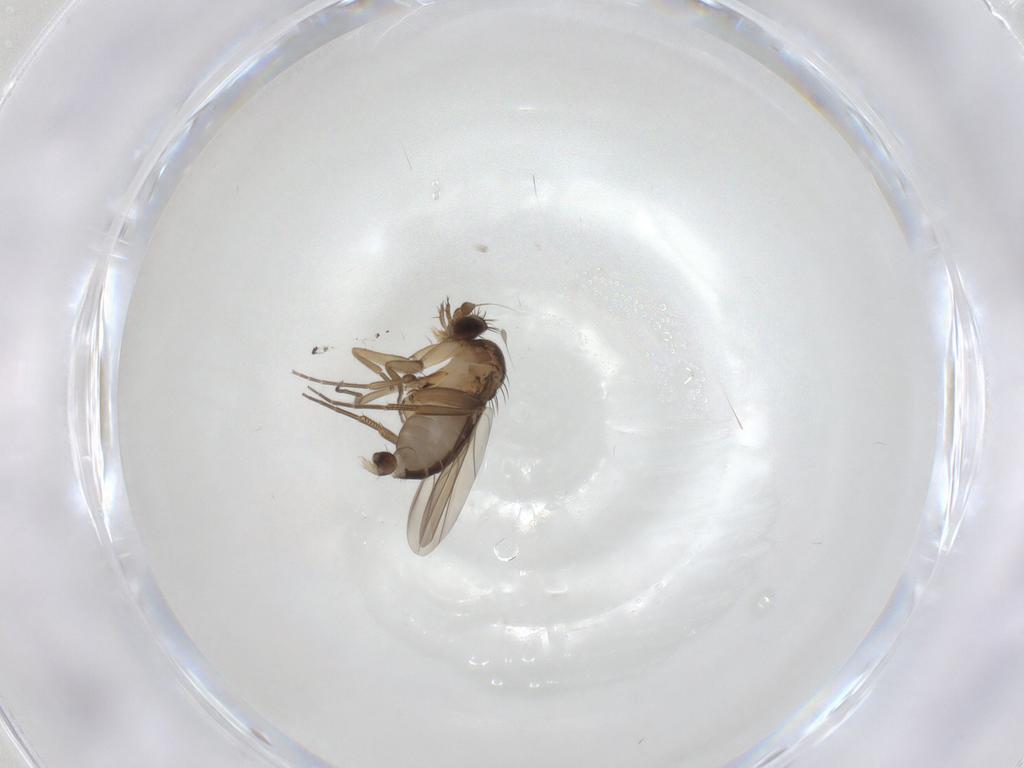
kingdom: Animalia
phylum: Arthropoda
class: Insecta
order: Diptera
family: Phoridae
